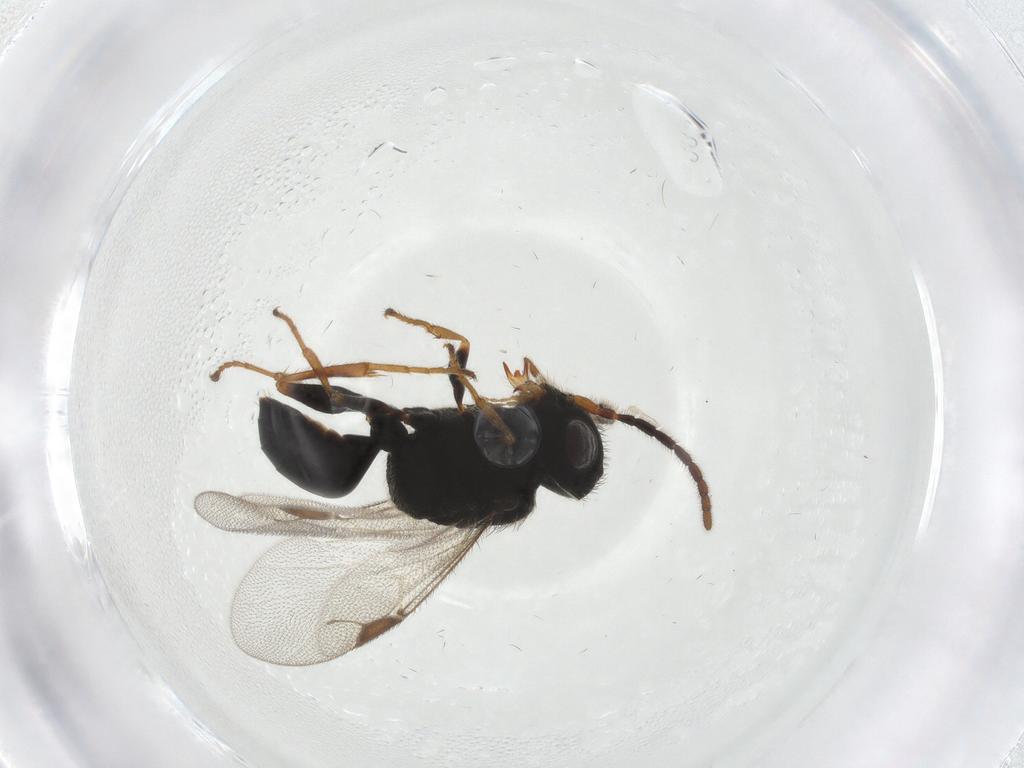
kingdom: Animalia
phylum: Arthropoda
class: Insecta
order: Hymenoptera
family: Dryinidae
